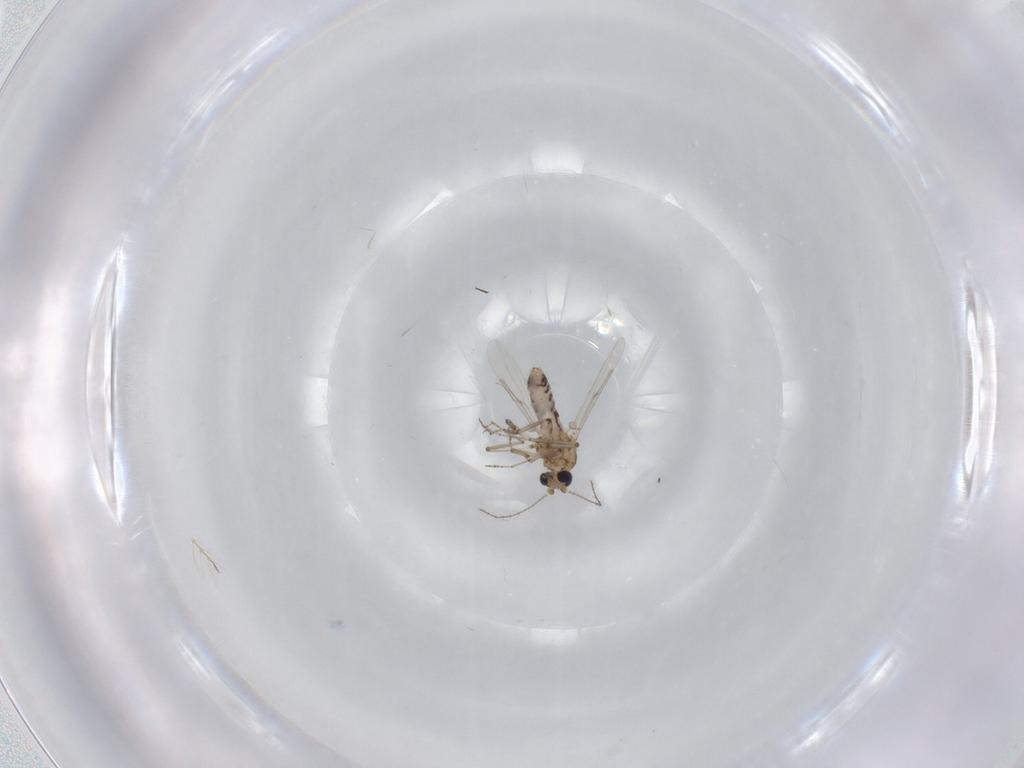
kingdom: Animalia
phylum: Arthropoda
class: Insecta
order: Diptera
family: Ceratopogonidae
